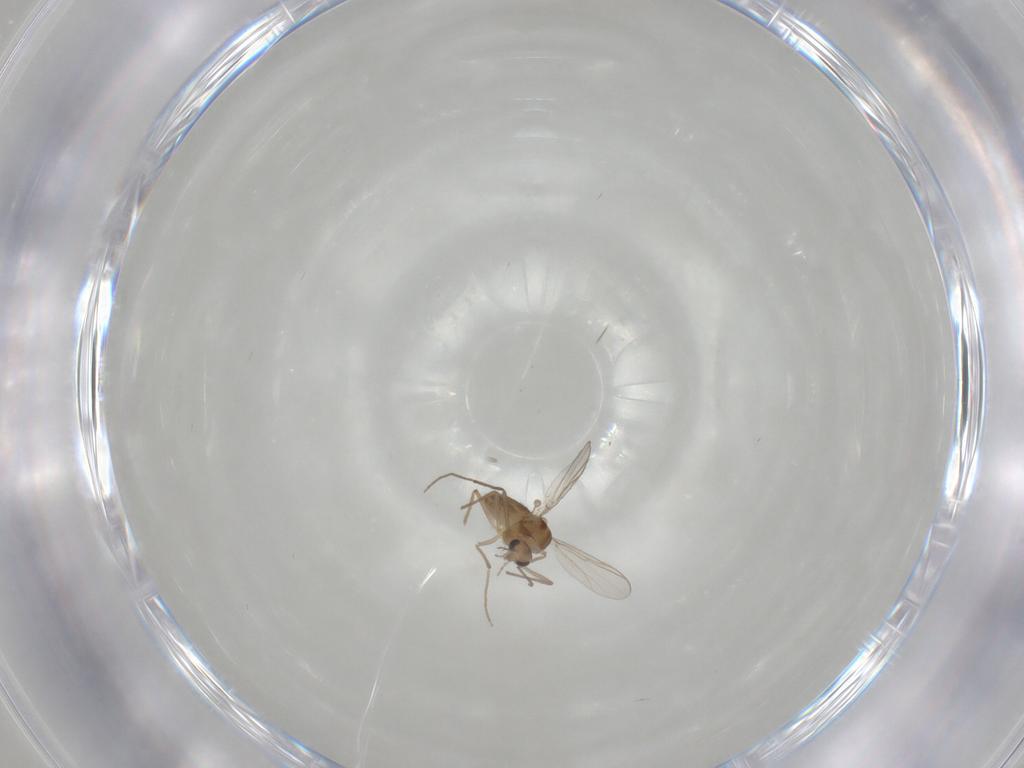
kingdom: Animalia
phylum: Arthropoda
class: Insecta
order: Diptera
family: Chironomidae
